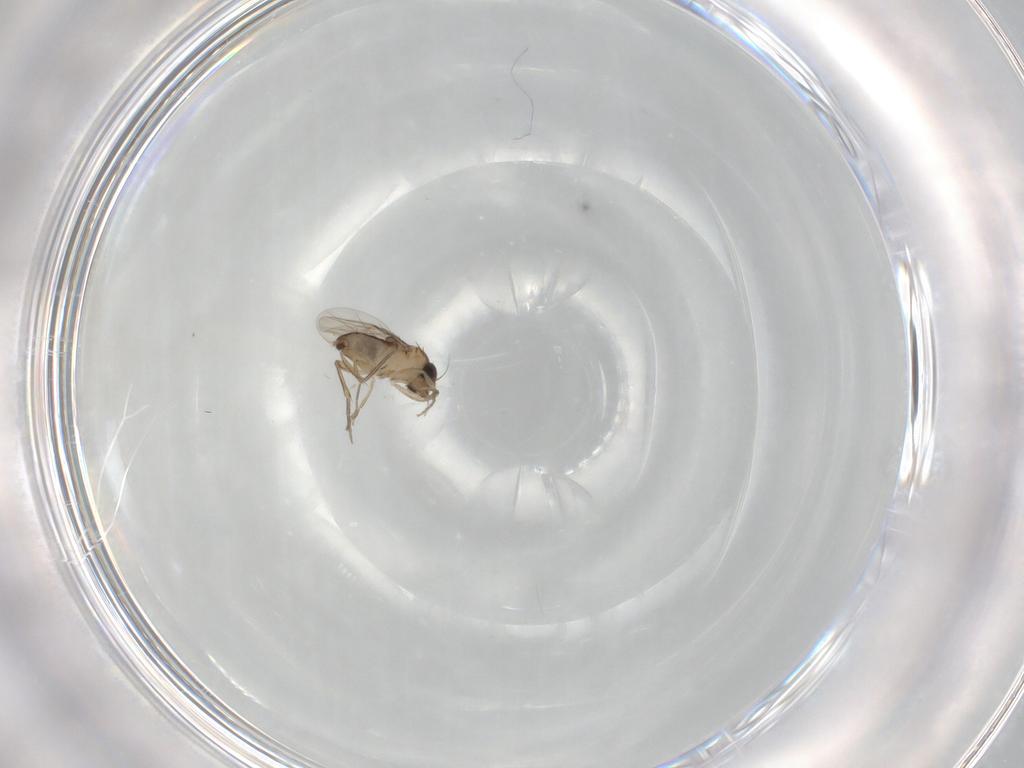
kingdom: Animalia
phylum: Arthropoda
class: Insecta
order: Diptera
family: Phoridae
